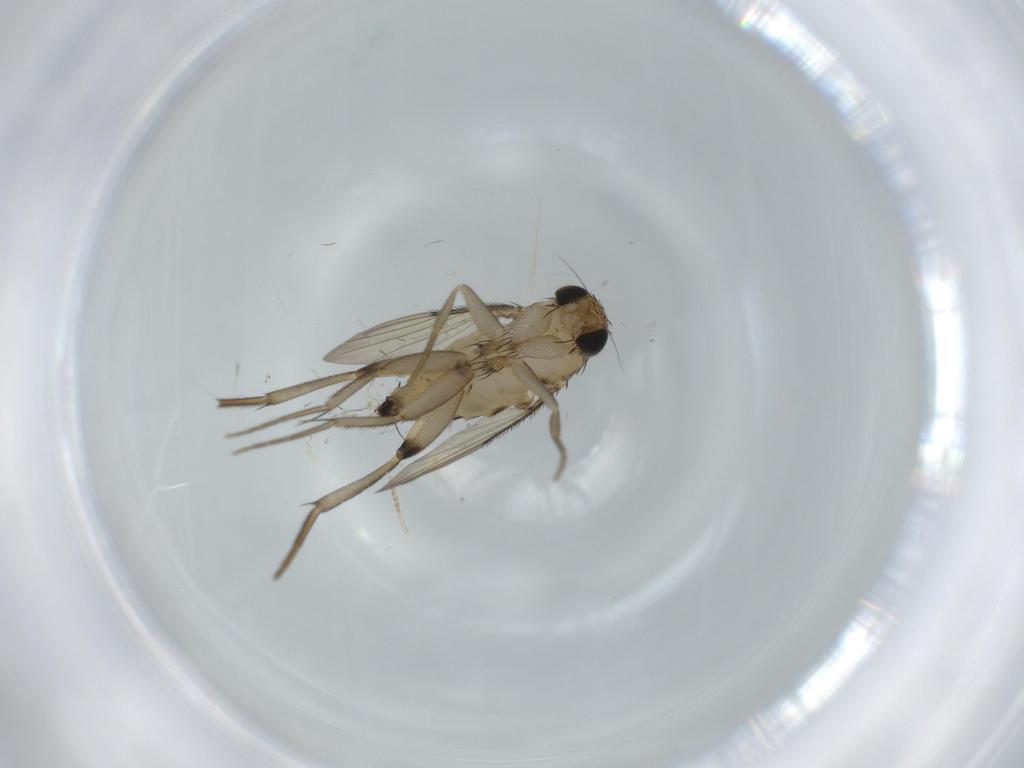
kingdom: Animalia
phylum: Arthropoda
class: Insecta
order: Diptera
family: Phoridae
